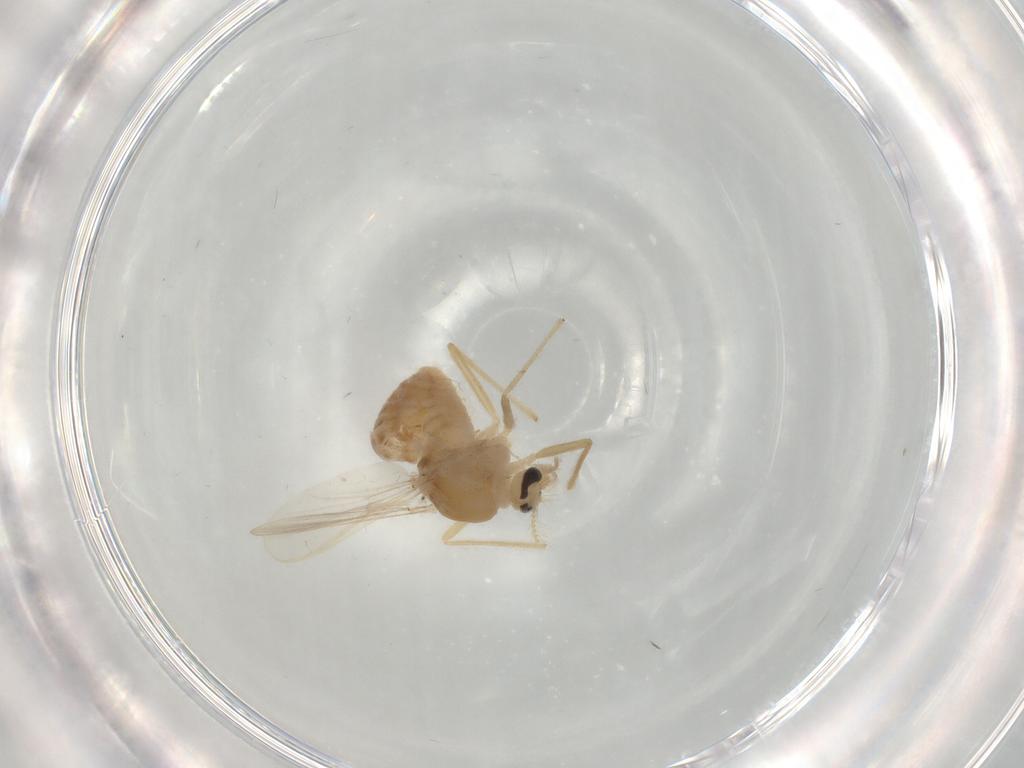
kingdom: Animalia
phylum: Arthropoda
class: Insecta
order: Diptera
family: Chironomidae
